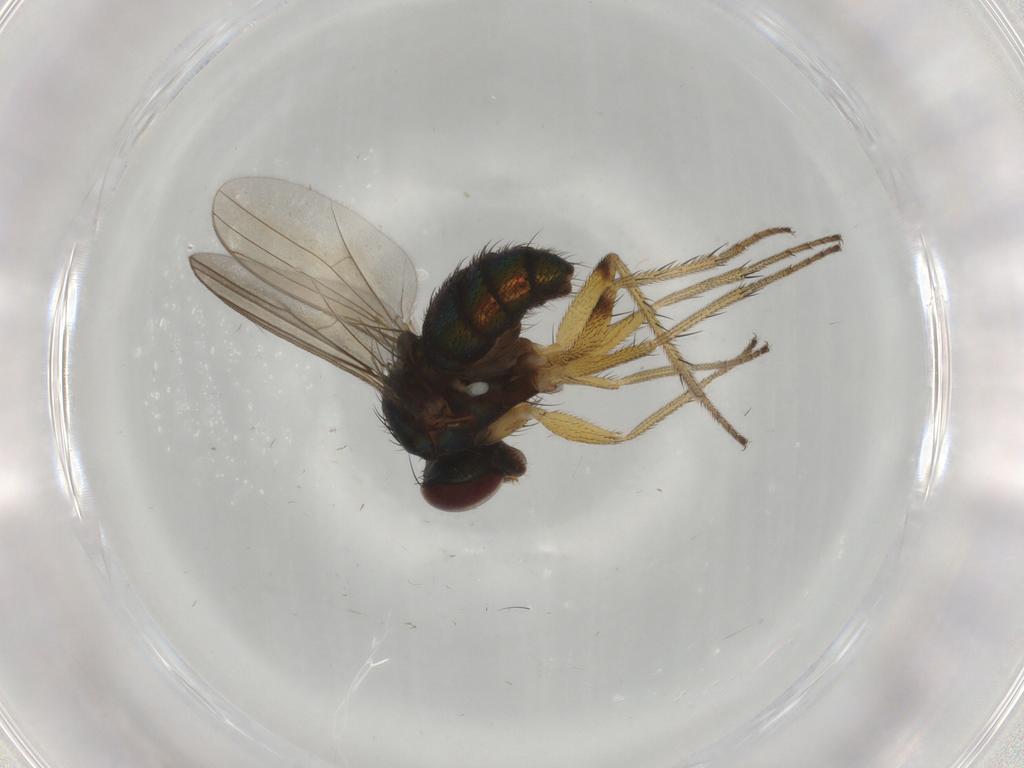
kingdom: Animalia
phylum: Arthropoda
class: Insecta
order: Diptera
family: Dolichopodidae
